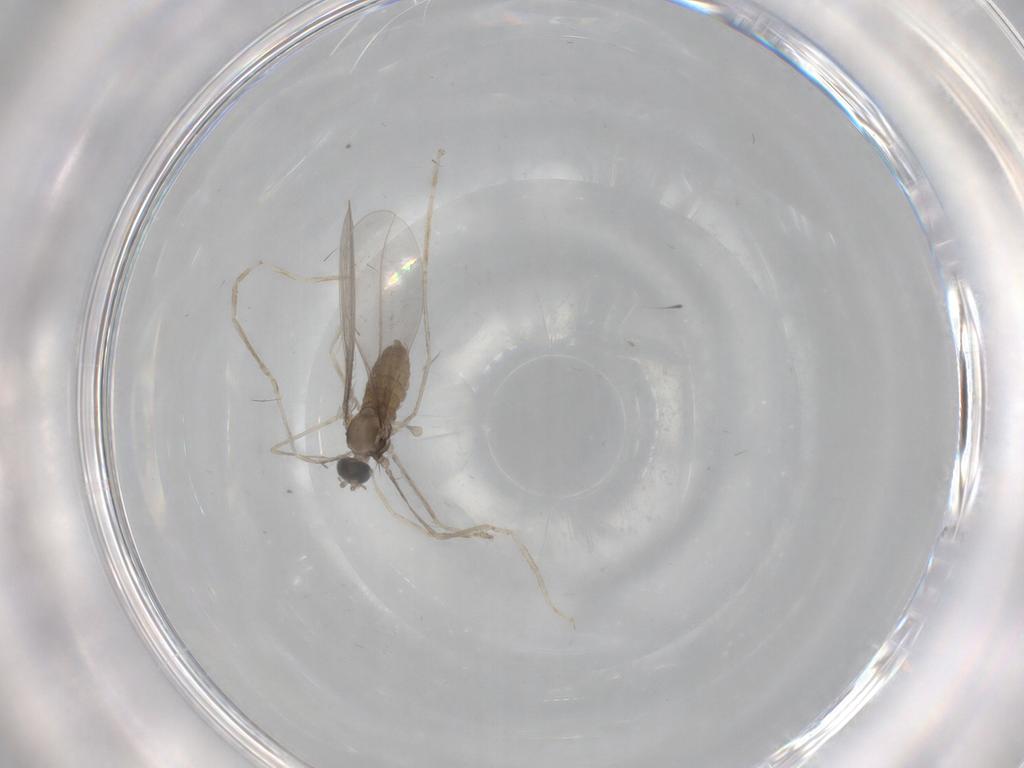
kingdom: Animalia
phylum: Arthropoda
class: Insecta
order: Diptera
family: Cecidomyiidae
